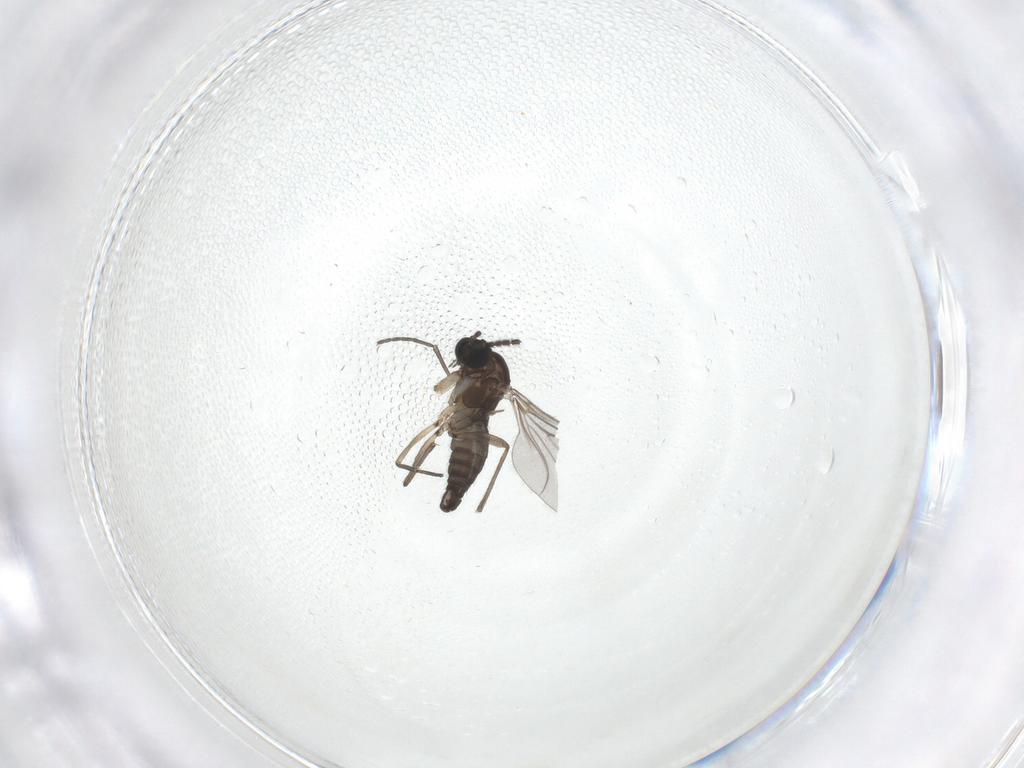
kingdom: Animalia
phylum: Arthropoda
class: Insecta
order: Diptera
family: Sciaridae
